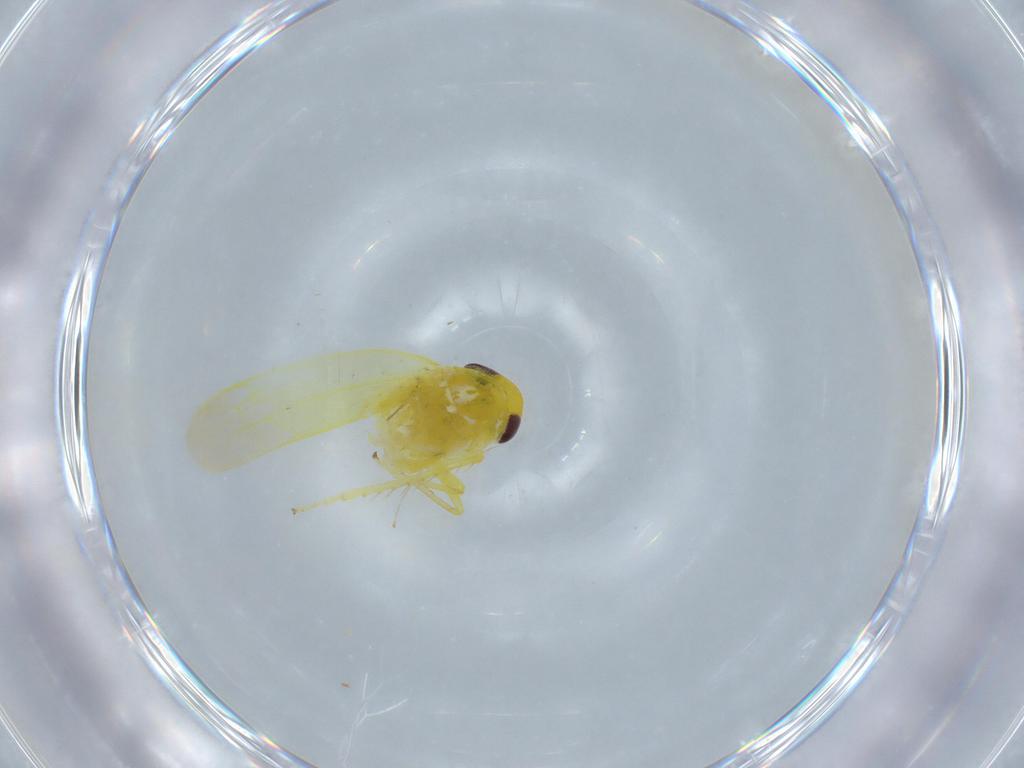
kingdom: Animalia
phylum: Arthropoda
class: Insecta
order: Hemiptera
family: Cicadellidae
